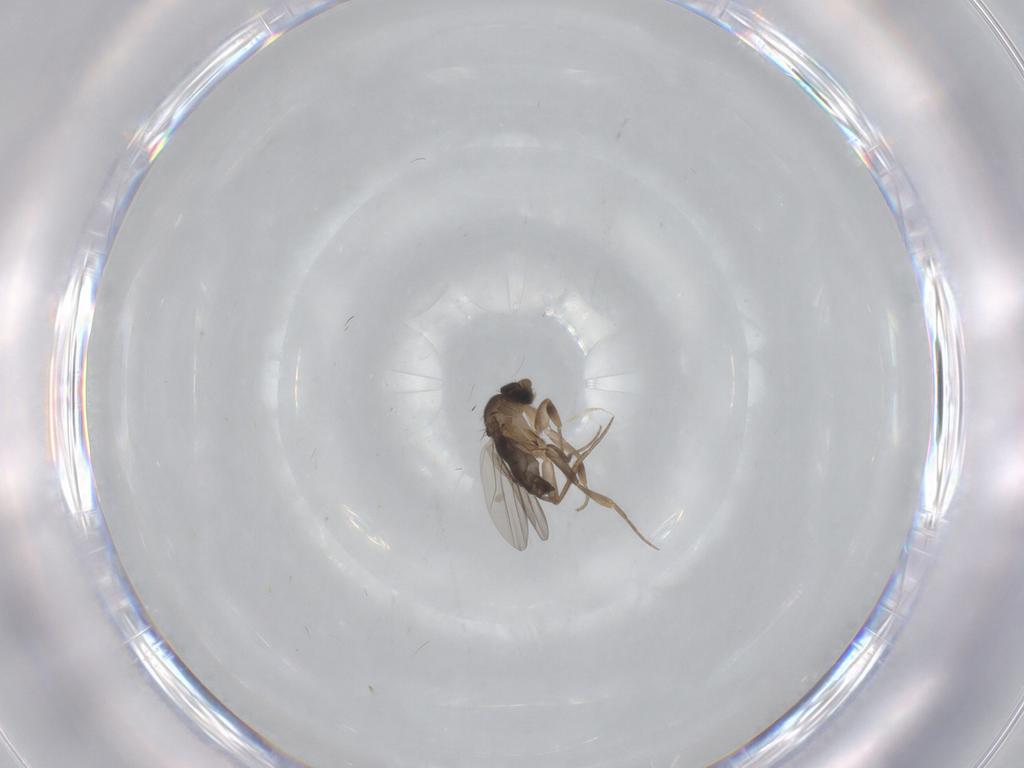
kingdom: Animalia
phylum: Arthropoda
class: Insecta
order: Diptera
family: Phoridae
